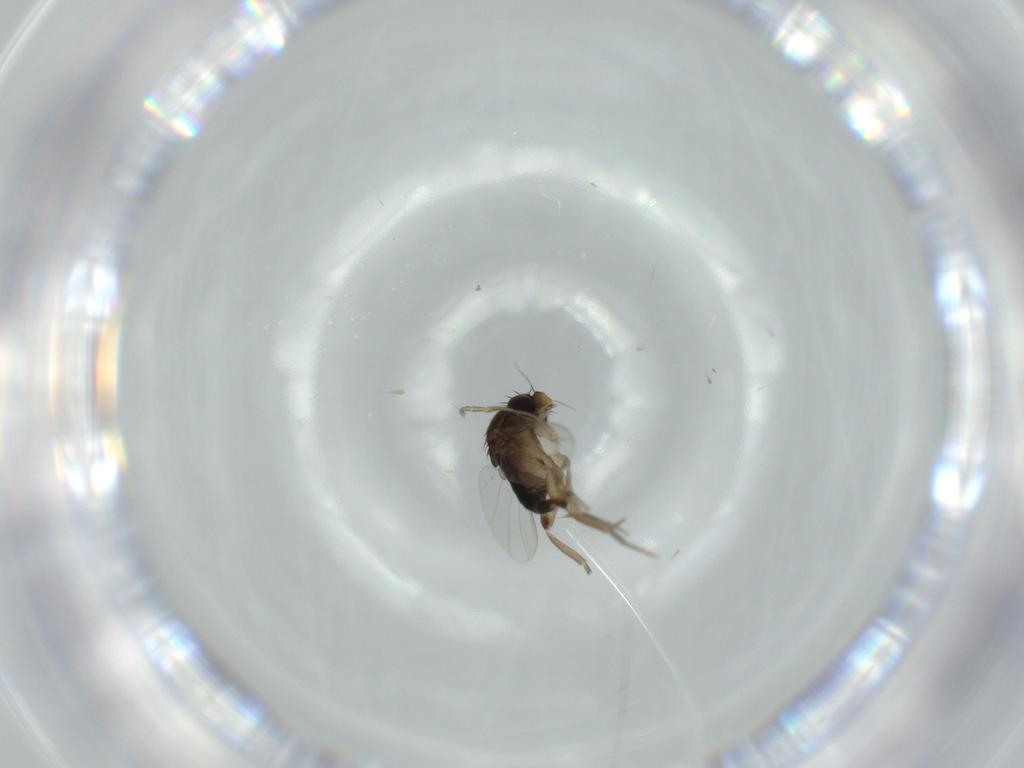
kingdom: Animalia
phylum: Arthropoda
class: Insecta
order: Diptera
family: Phoridae
